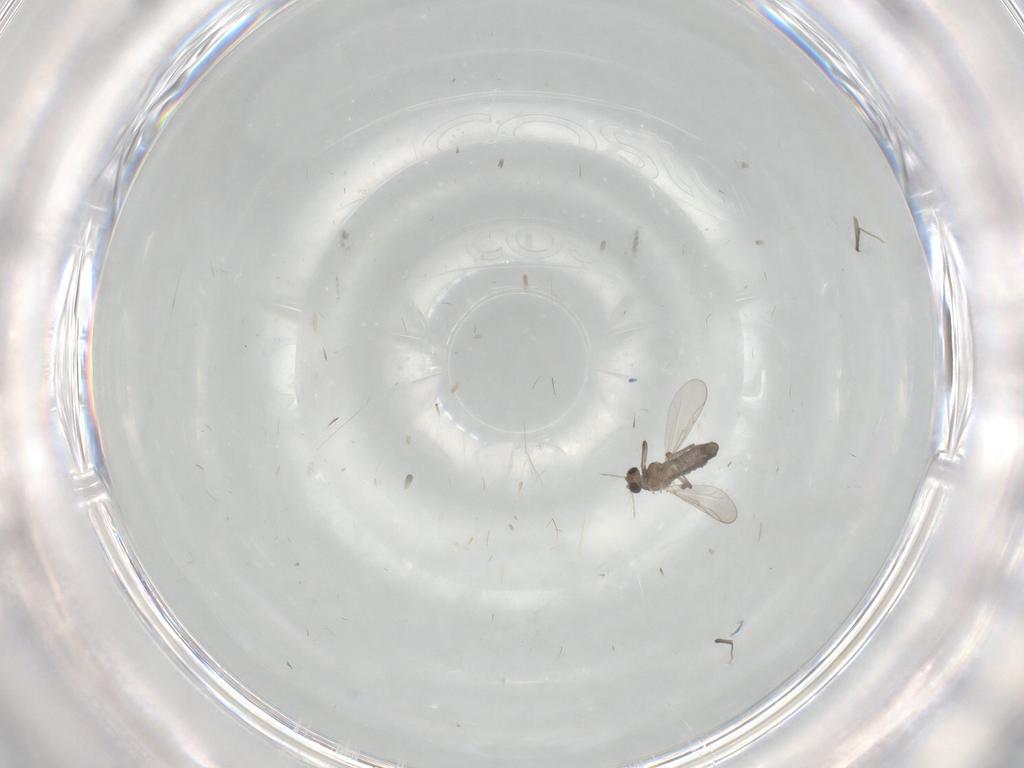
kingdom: Animalia
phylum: Arthropoda
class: Insecta
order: Diptera
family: Chironomidae
